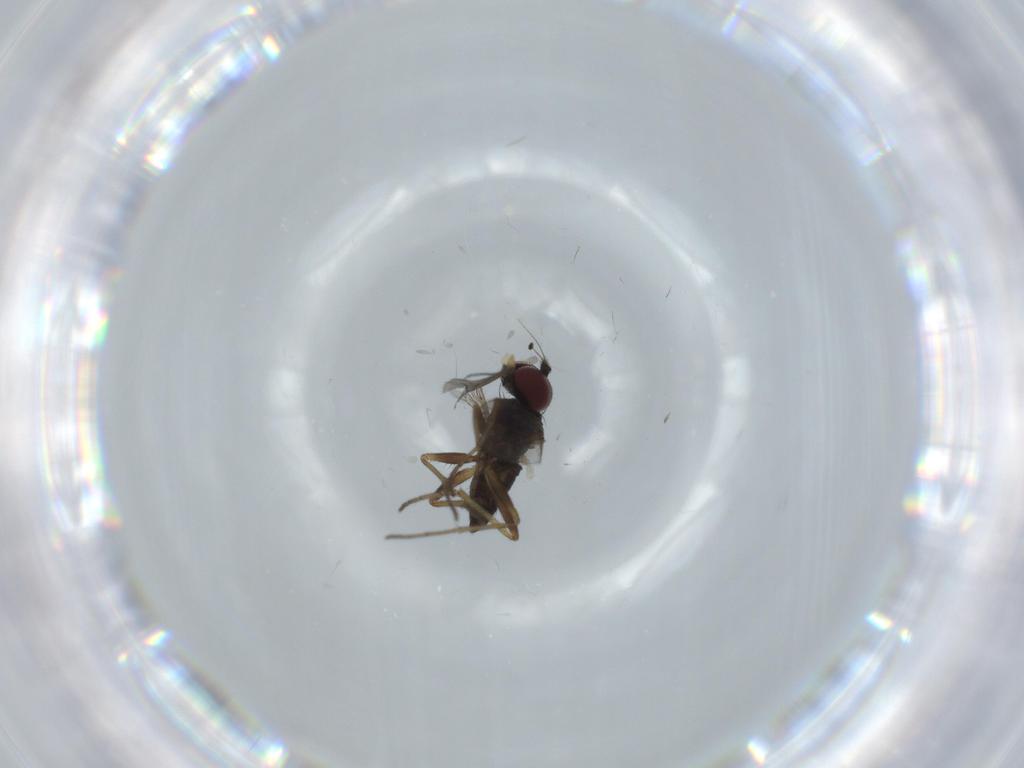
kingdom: Animalia
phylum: Arthropoda
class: Insecta
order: Diptera
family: Dolichopodidae
